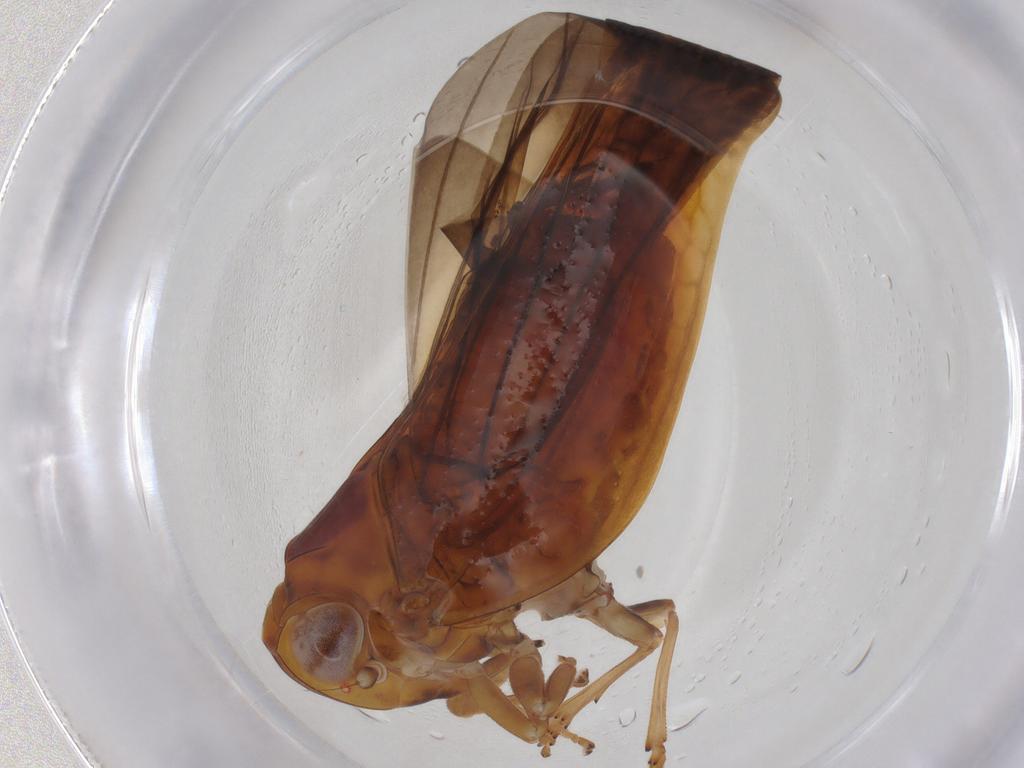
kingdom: Animalia
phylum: Arthropoda
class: Insecta
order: Hemiptera
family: Nogodinidae
